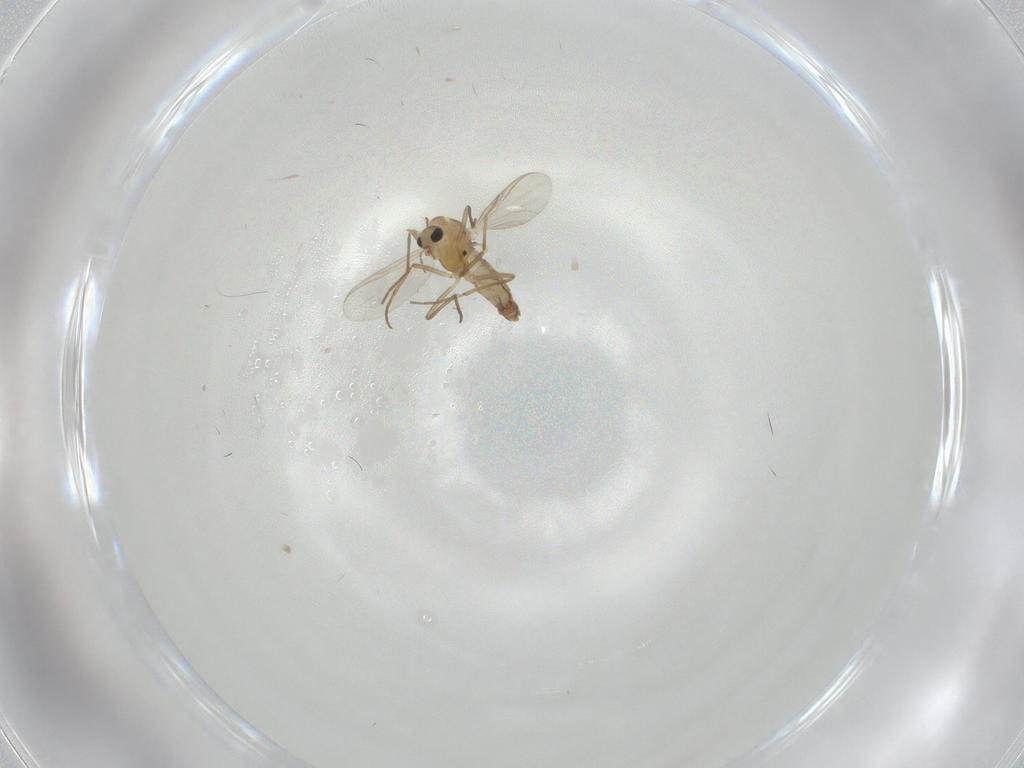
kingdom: Animalia
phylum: Arthropoda
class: Insecta
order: Diptera
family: Chironomidae
